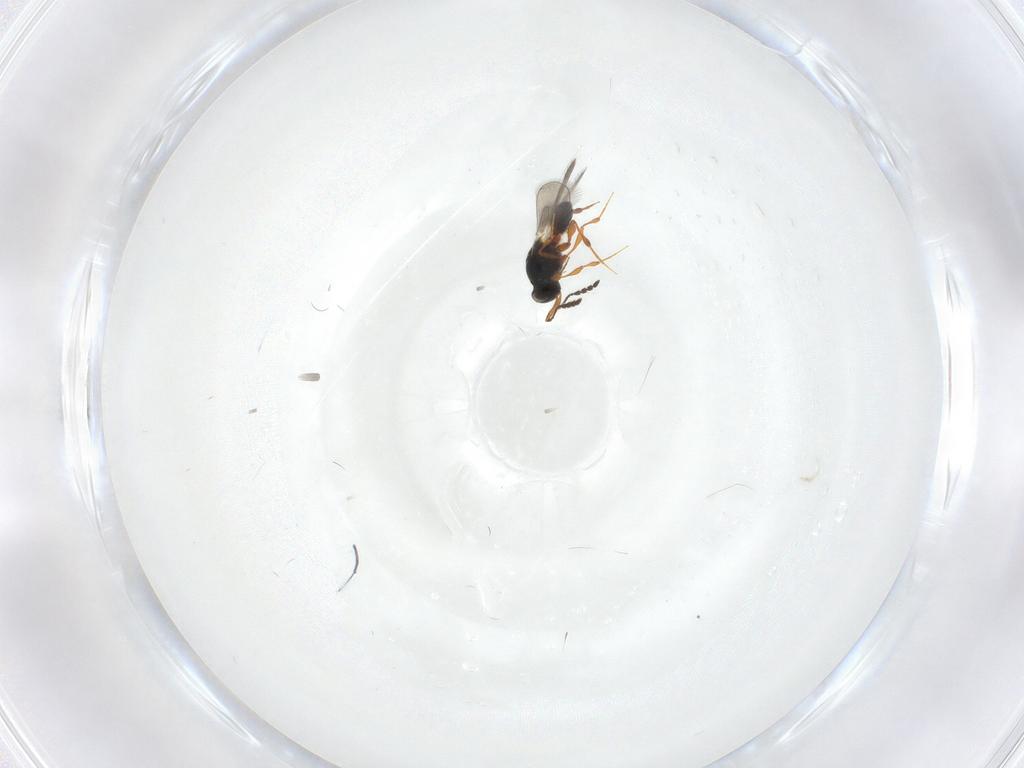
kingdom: Animalia
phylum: Arthropoda
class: Insecta
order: Hymenoptera
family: Platygastridae
